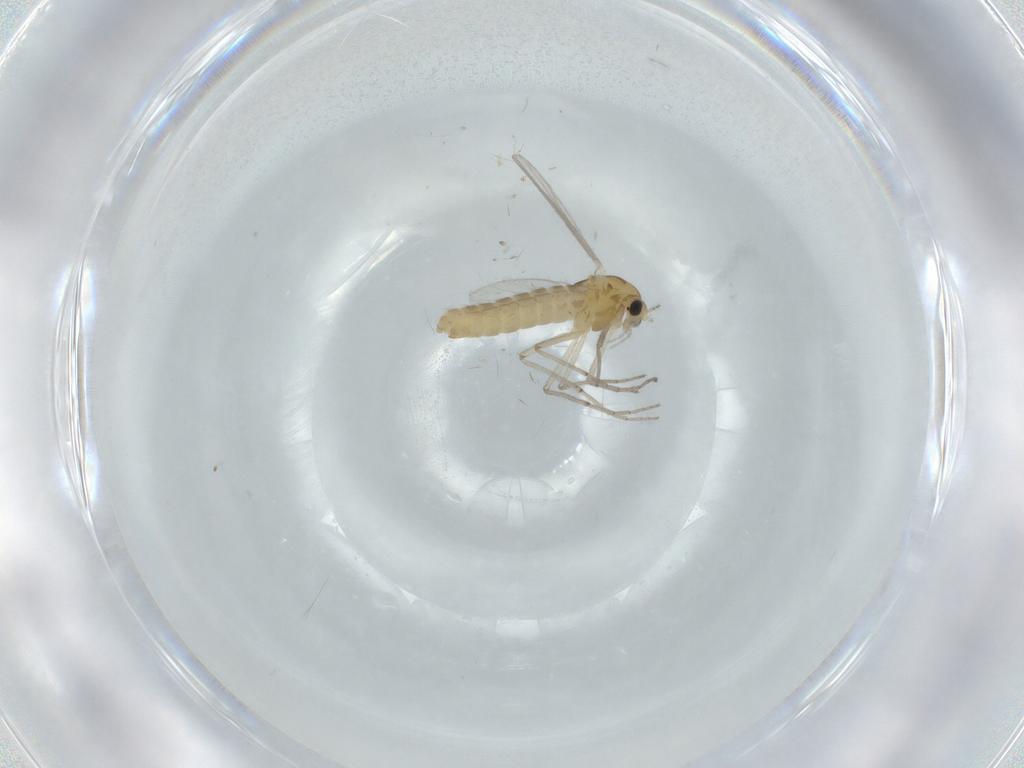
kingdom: Animalia
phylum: Arthropoda
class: Insecta
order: Diptera
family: Chironomidae
